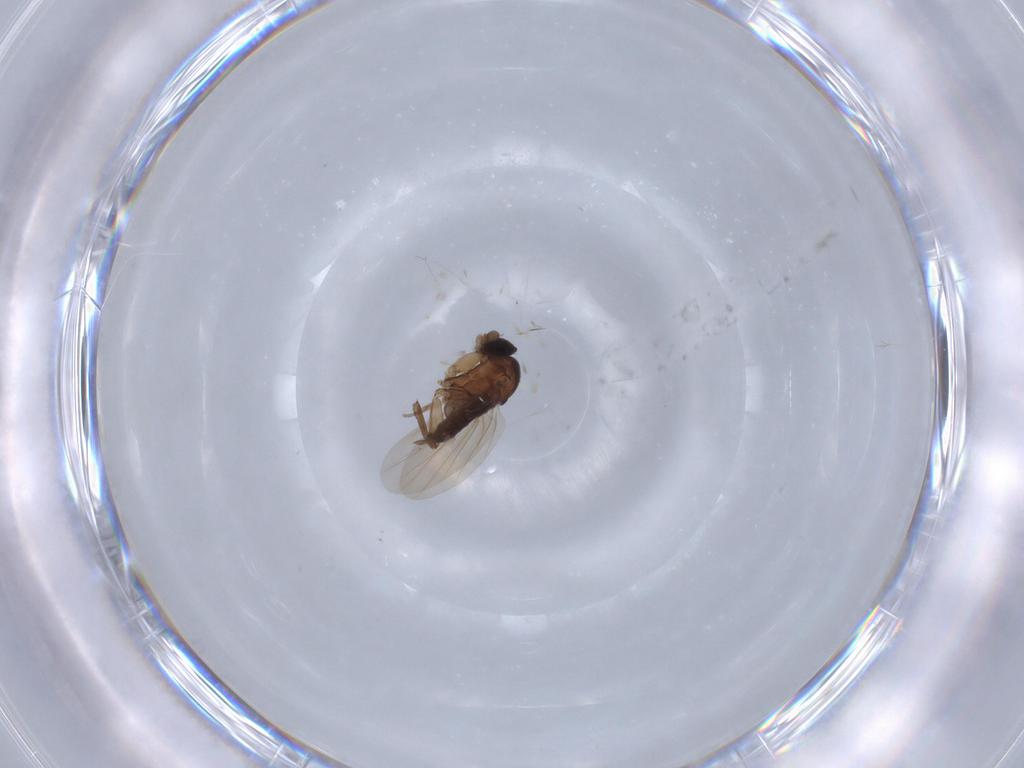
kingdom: Animalia
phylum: Arthropoda
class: Insecta
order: Diptera
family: Phoridae
